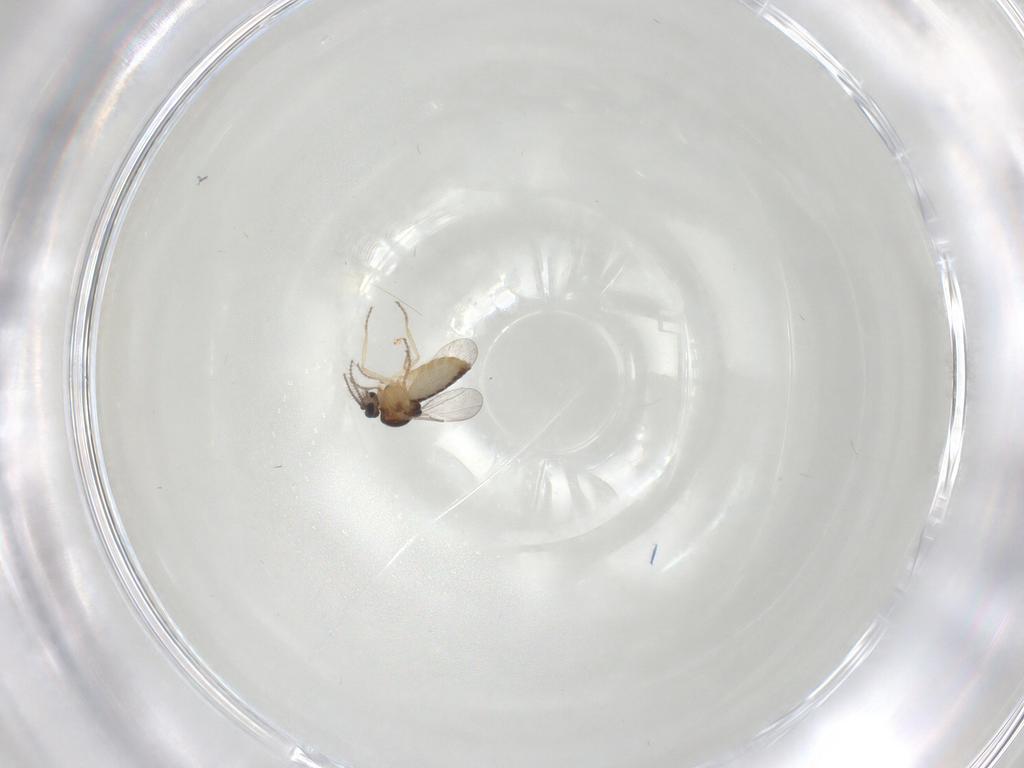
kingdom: Animalia
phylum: Arthropoda
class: Insecta
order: Diptera
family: Ceratopogonidae
